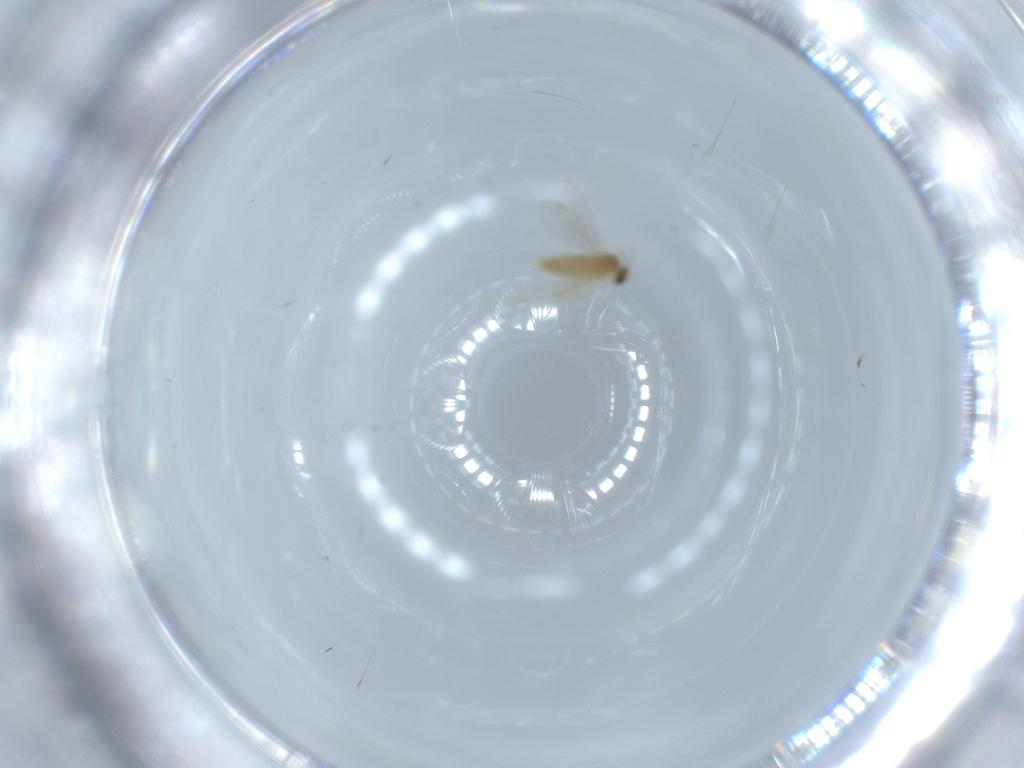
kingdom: Animalia
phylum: Arthropoda
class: Insecta
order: Diptera
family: Cecidomyiidae
